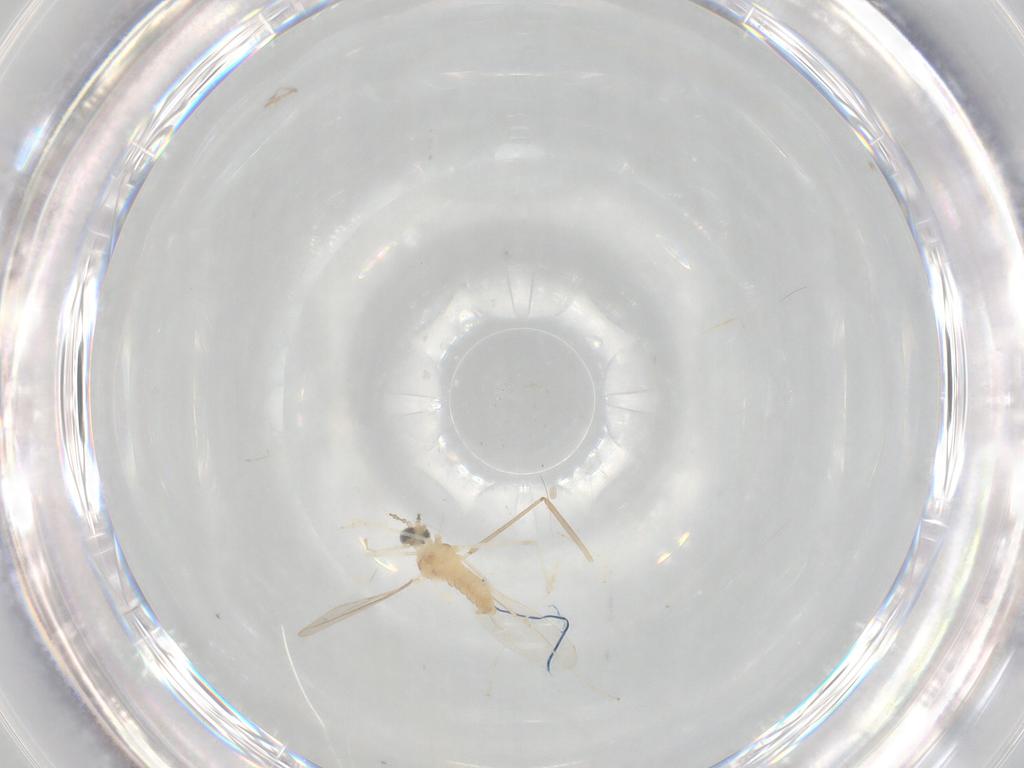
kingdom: Animalia
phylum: Arthropoda
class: Insecta
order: Diptera
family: Cecidomyiidae
